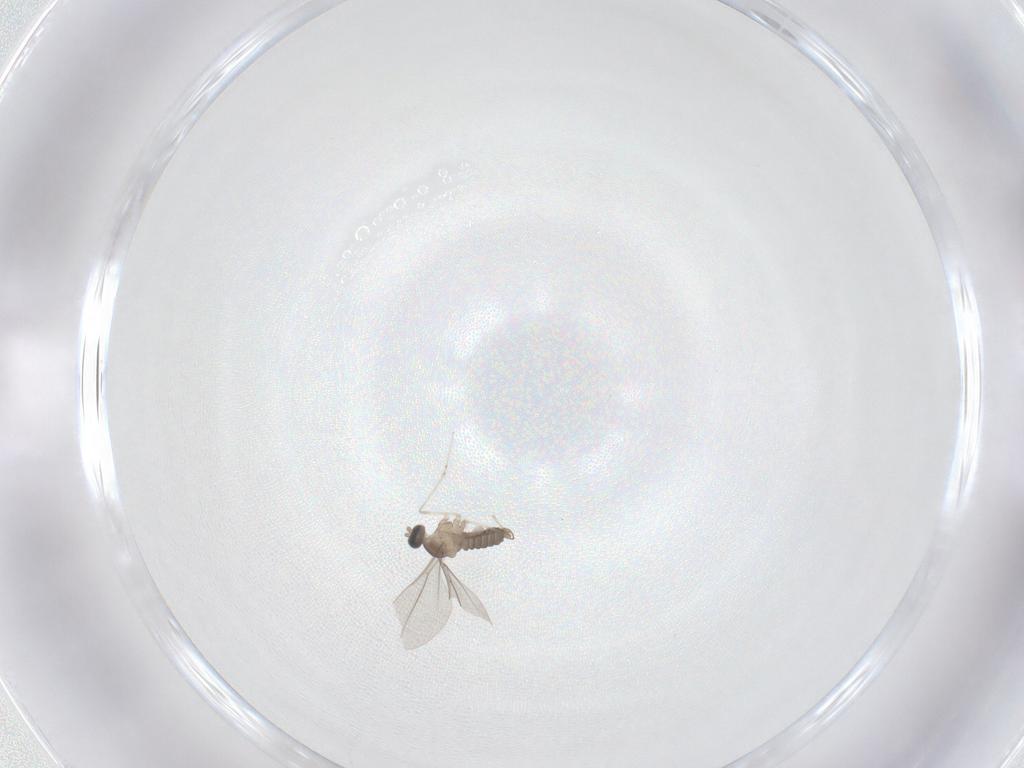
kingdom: Animalia
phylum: Arthropoda
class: Insecta
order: Diptera
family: Cecidomyiidae
